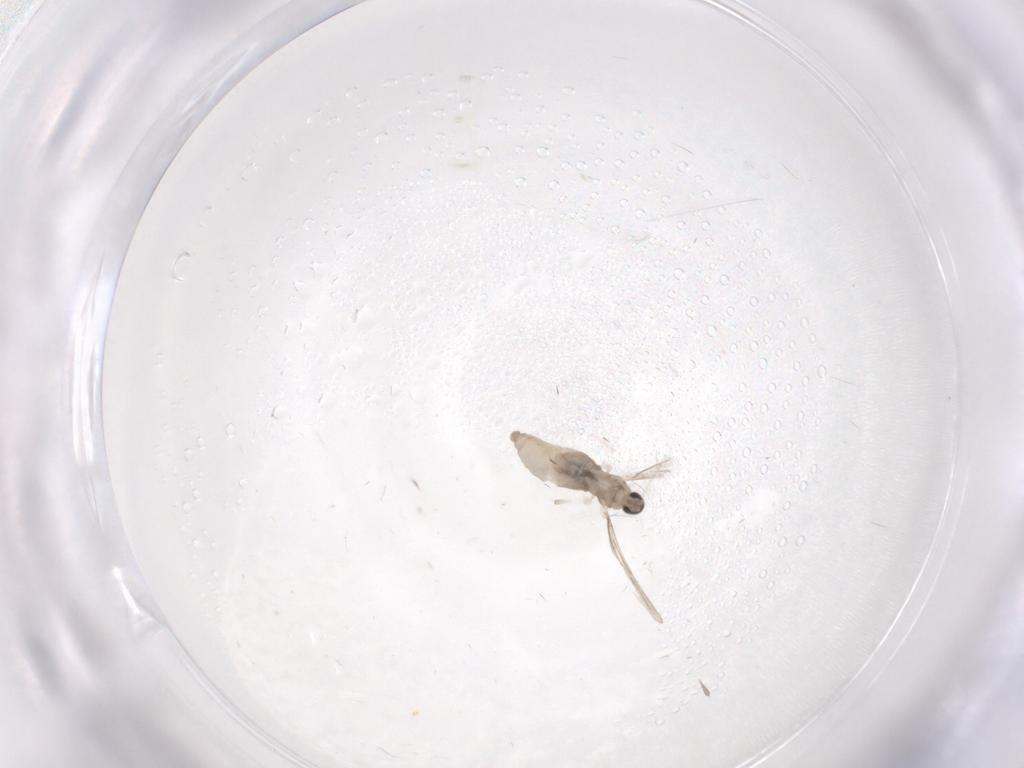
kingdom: Animalia
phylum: Arthropoda
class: Insecta
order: Diptera
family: Cecidomyiidae
